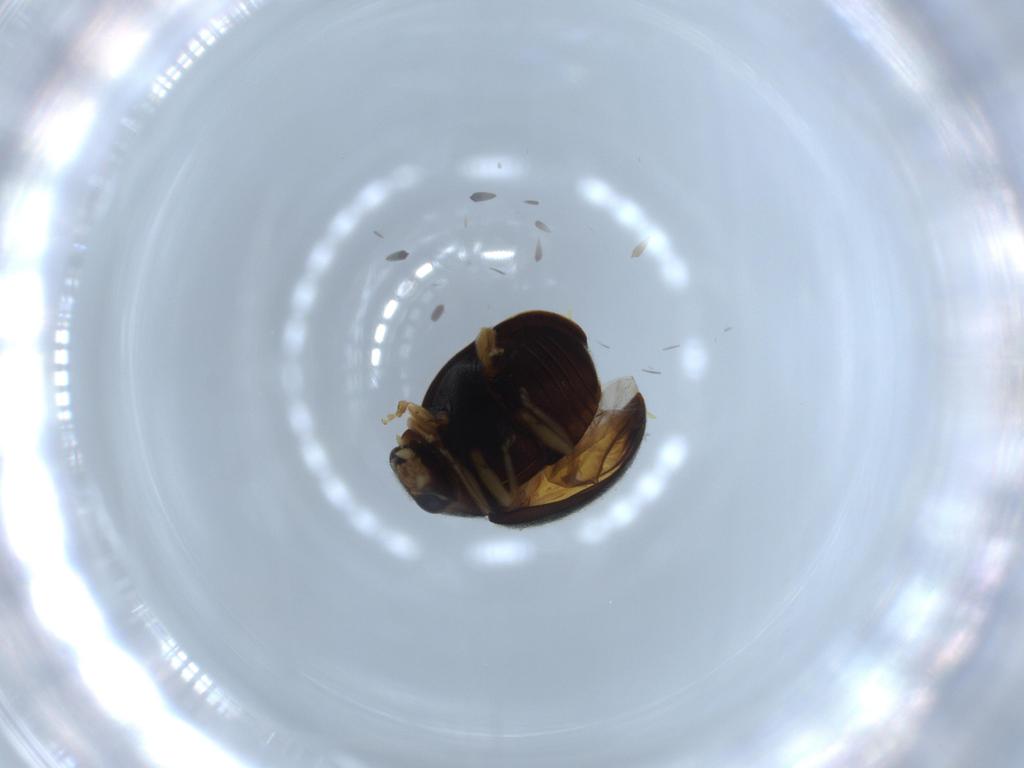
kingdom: Animalia
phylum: Arthropoda
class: Insecta
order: Coleoptera
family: Coccinellidae
